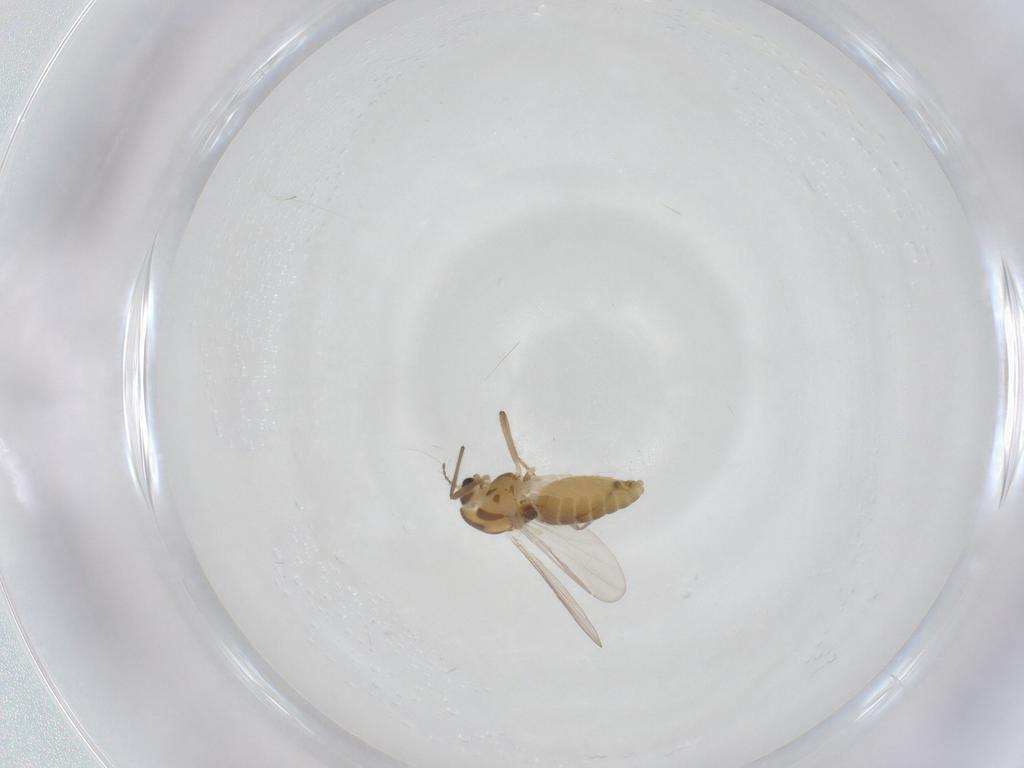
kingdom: Animalia
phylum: Arthropoda
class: Insecta
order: Diptera
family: Chironomidae
